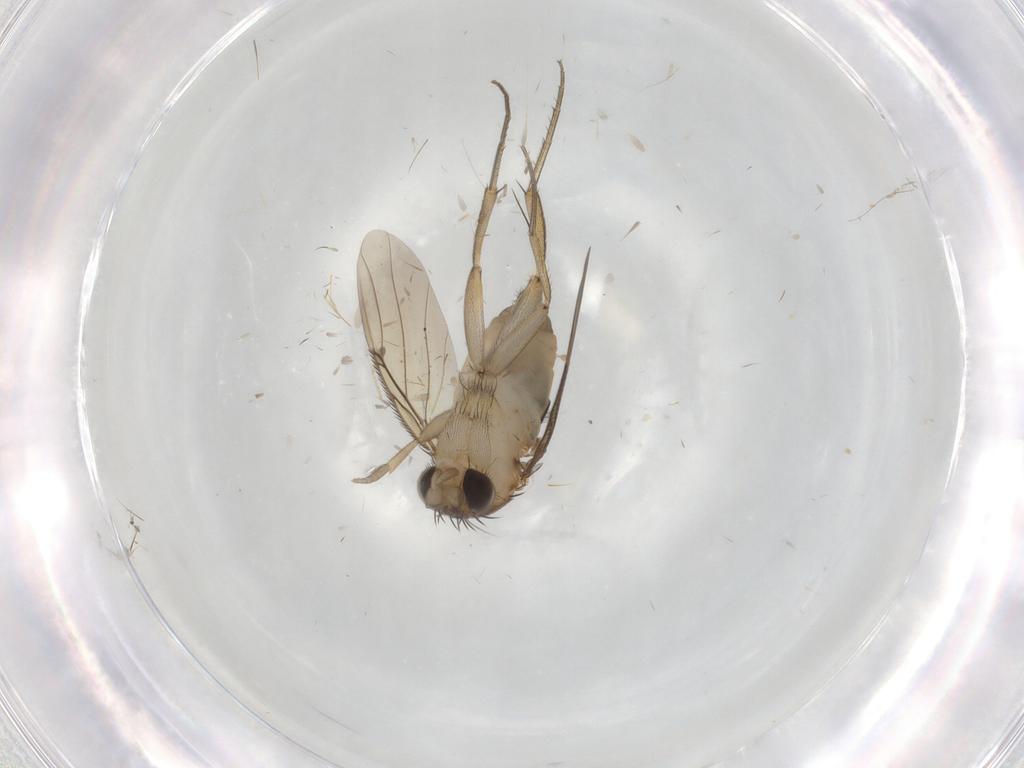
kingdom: Animalia
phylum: Arthropoda
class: Insecta
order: Diptera
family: Phoridae
